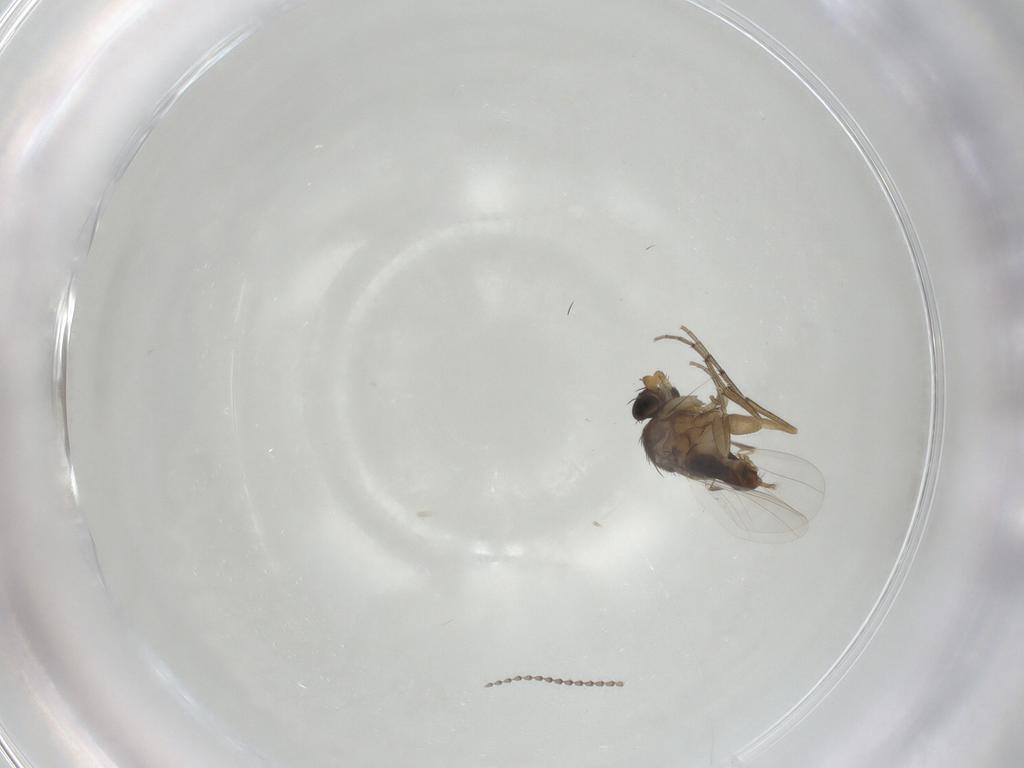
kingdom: Animalia
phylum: Arthropoda
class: Insecta
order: Diptera
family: Phoridae
